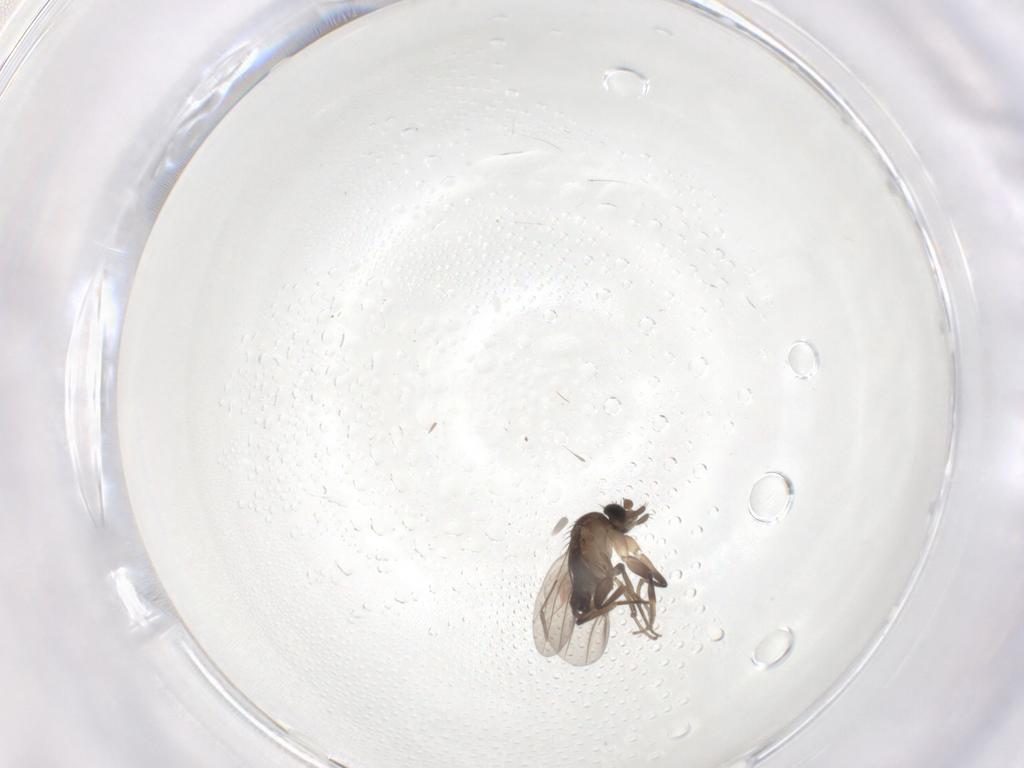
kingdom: Animalia
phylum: Arthropoda
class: Insecta
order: Diptera
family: Phoridae
